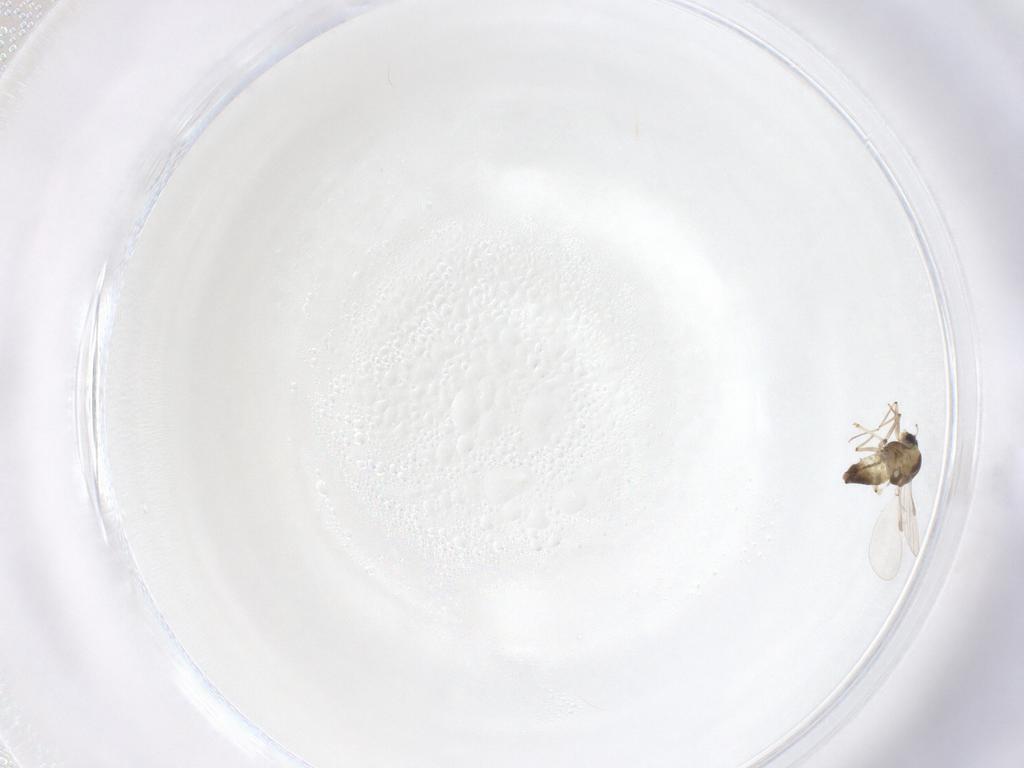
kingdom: Animalia
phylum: Arthropoda
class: Insecta
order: Diptera
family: Chironomidae
